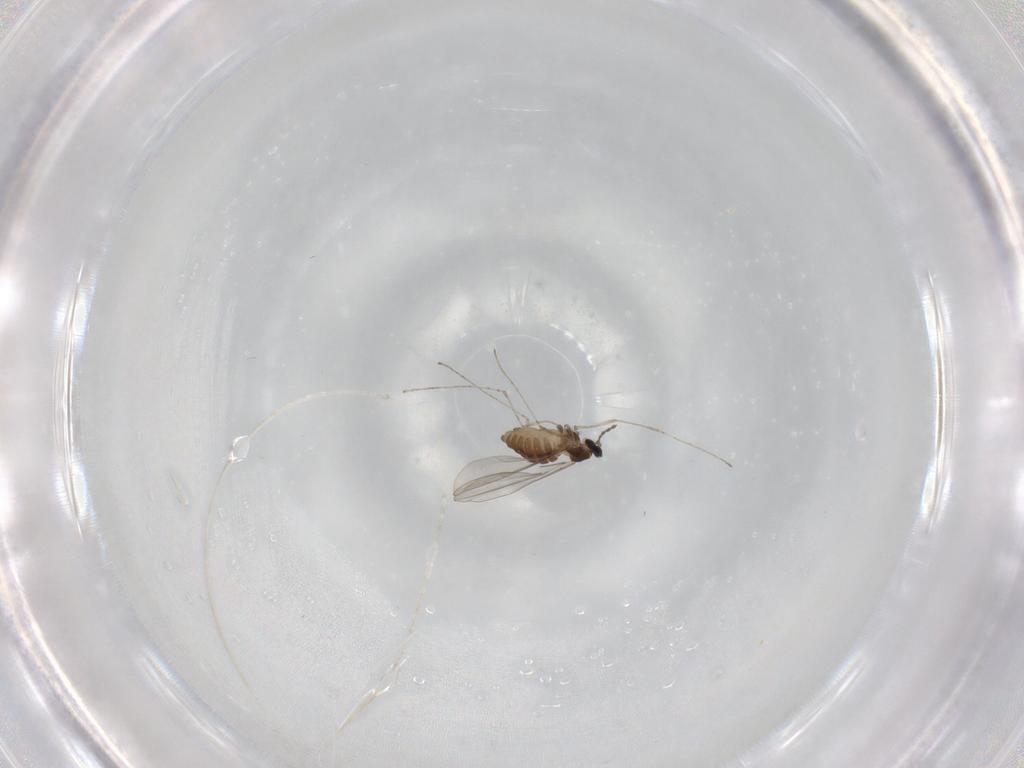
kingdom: Animalia
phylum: Arthropoda
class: Insecta
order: Diptera
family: Cecidomyiidae
